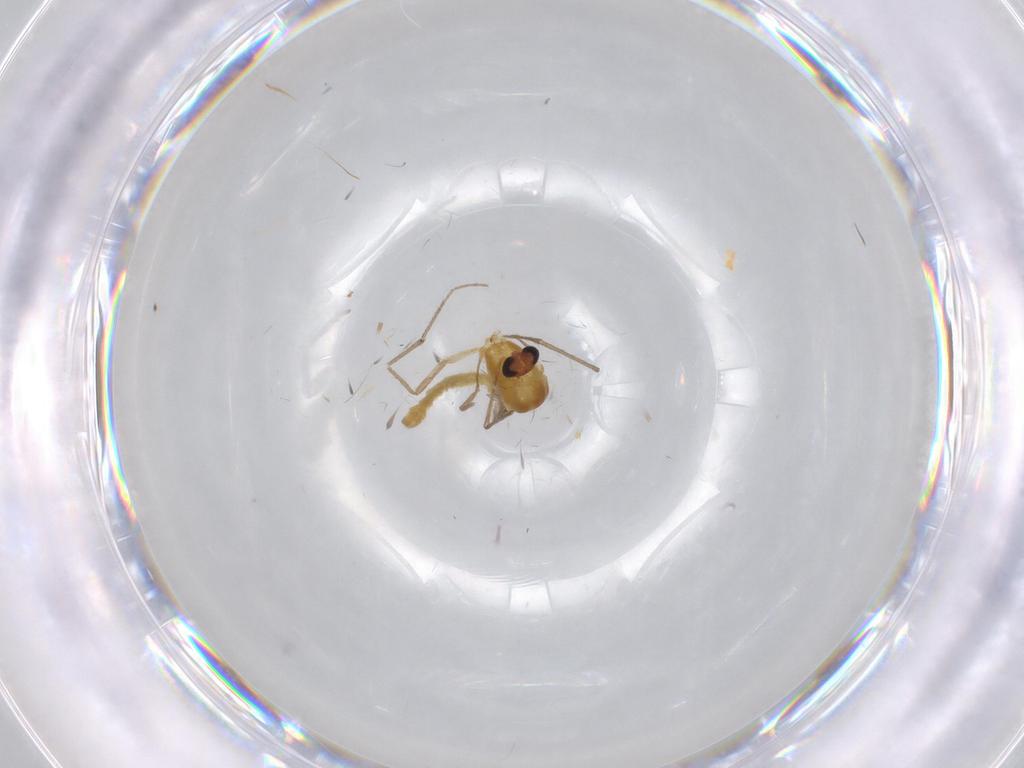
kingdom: Animalia
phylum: Arthropoda
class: Insecta
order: Diptera
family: Chironomidae
